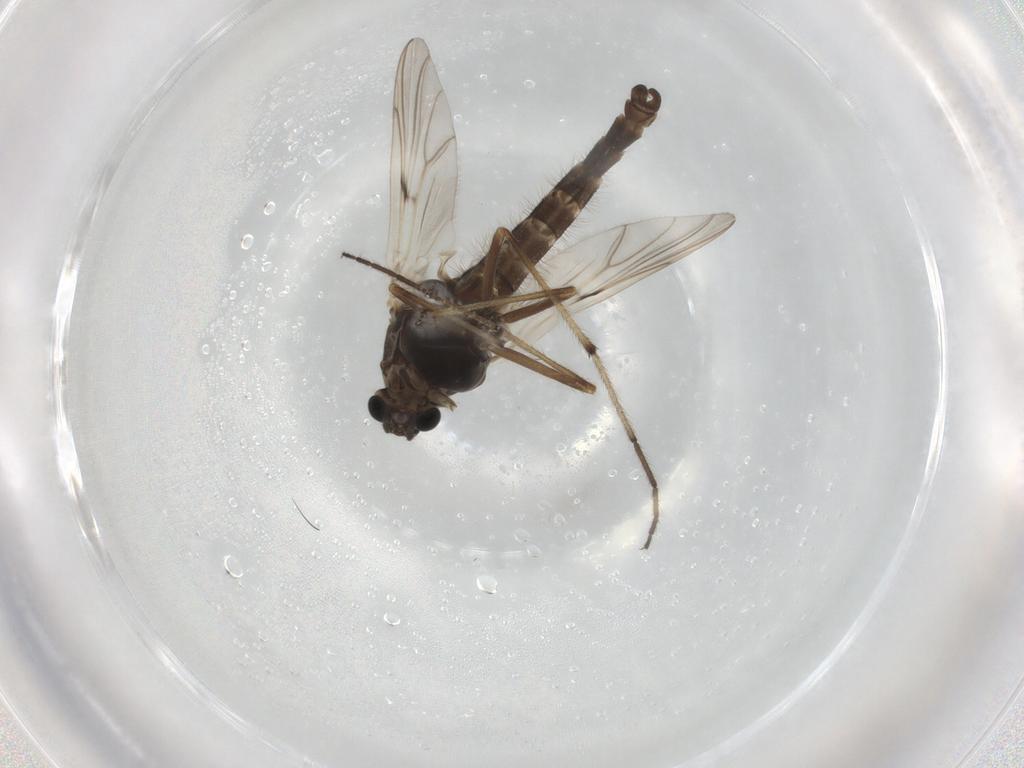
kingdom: Animalia
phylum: Arthropoda
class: Insecta
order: Diptera
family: Chironomidae
